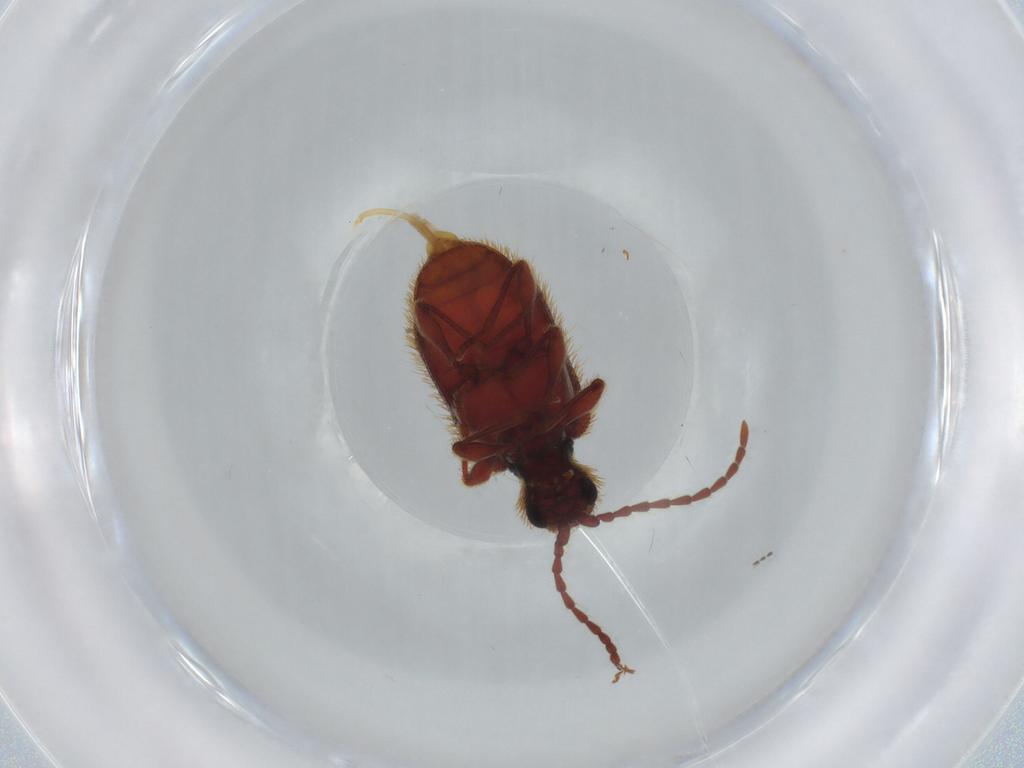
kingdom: Animalia
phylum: Arthropoda
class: Insecta
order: Coleoptera
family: Ptinidae
